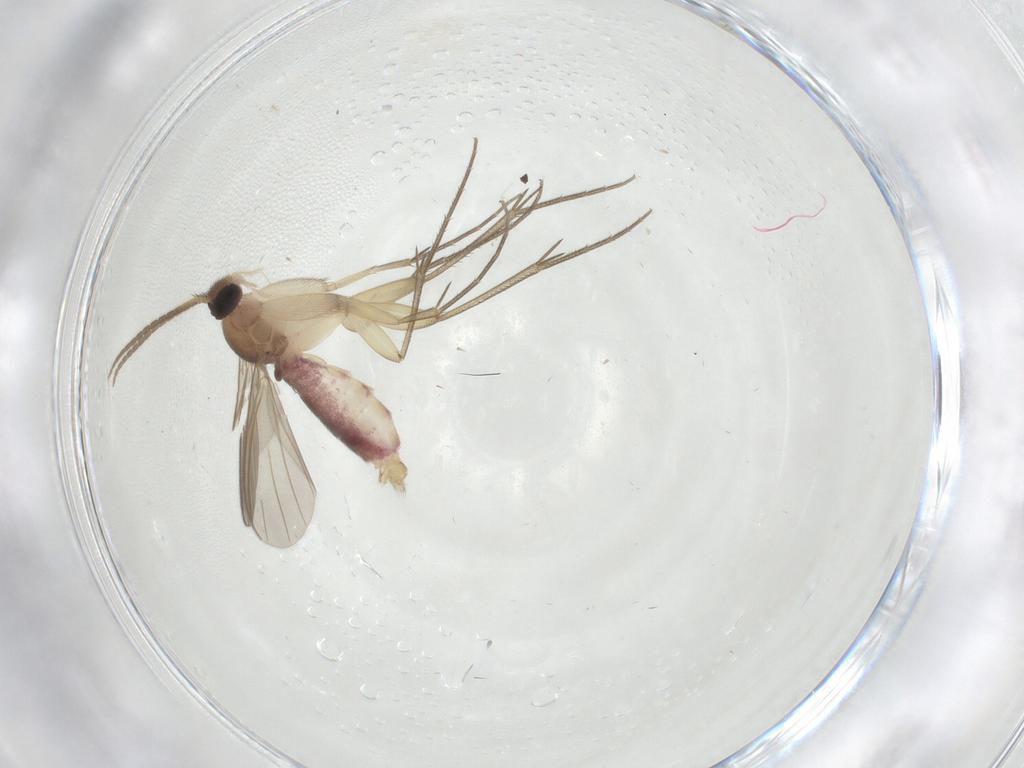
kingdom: Animalia
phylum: Arthropoda
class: Insecta
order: Diptera
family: Mycetophilidae
